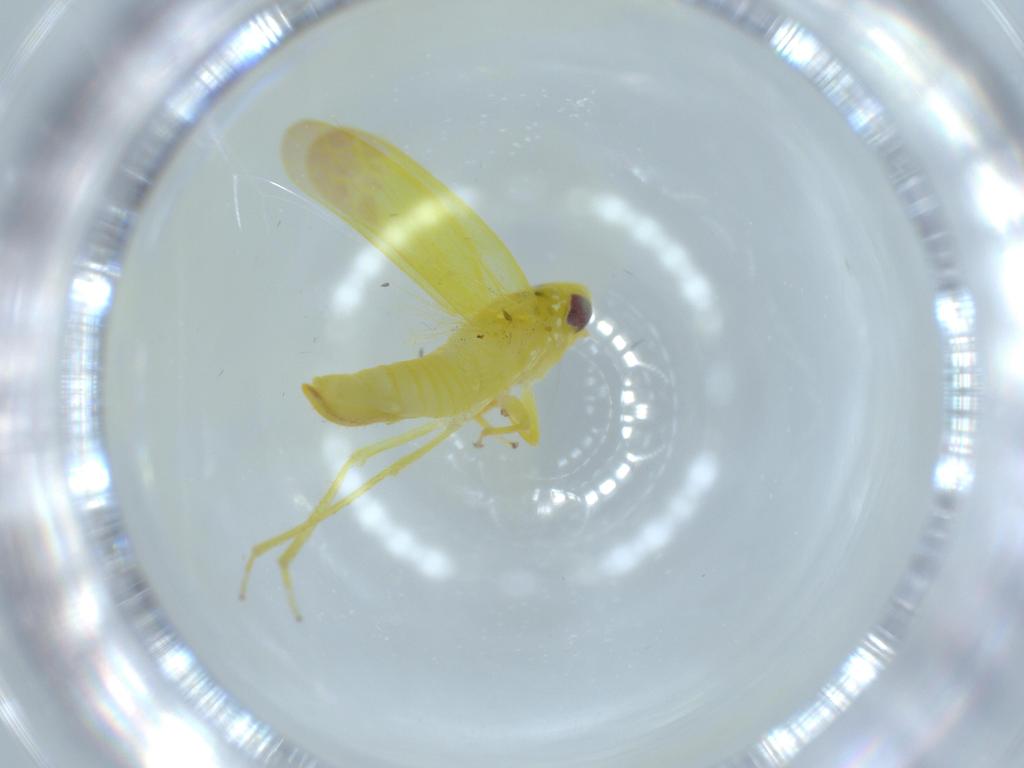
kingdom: Animalia
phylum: Arthropoda
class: Insecta
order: Hemiptera
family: Cicadellidae
